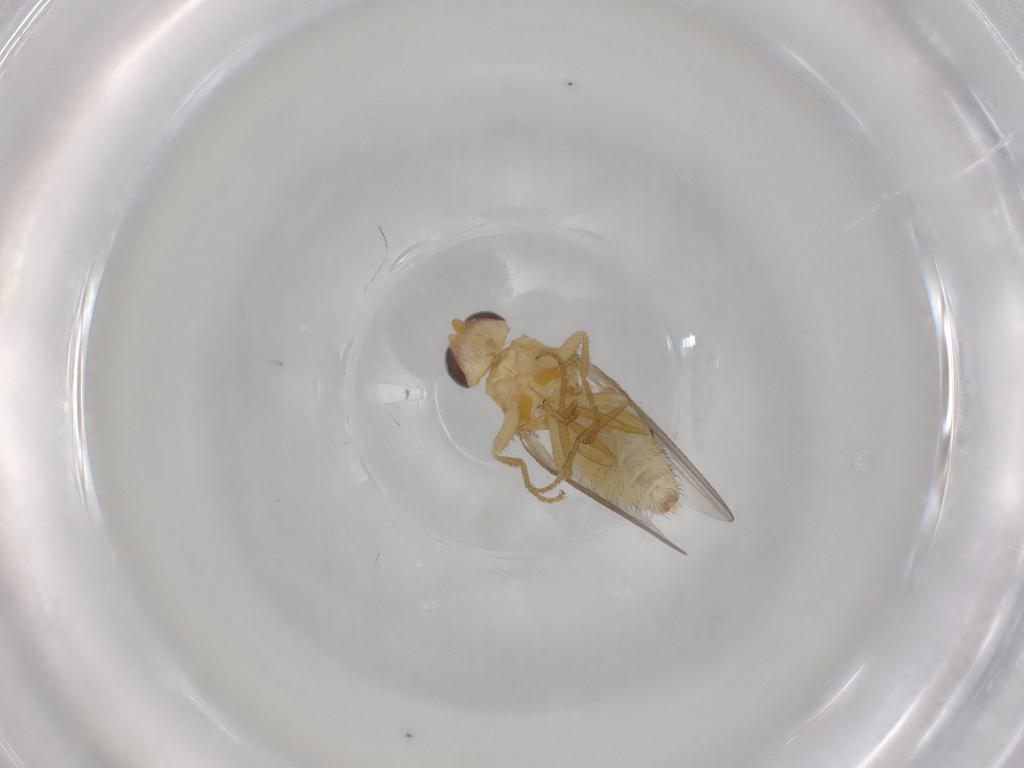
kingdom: Animalia
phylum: Arthropoda
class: Insecta
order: Diptera
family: Chyromyidae
